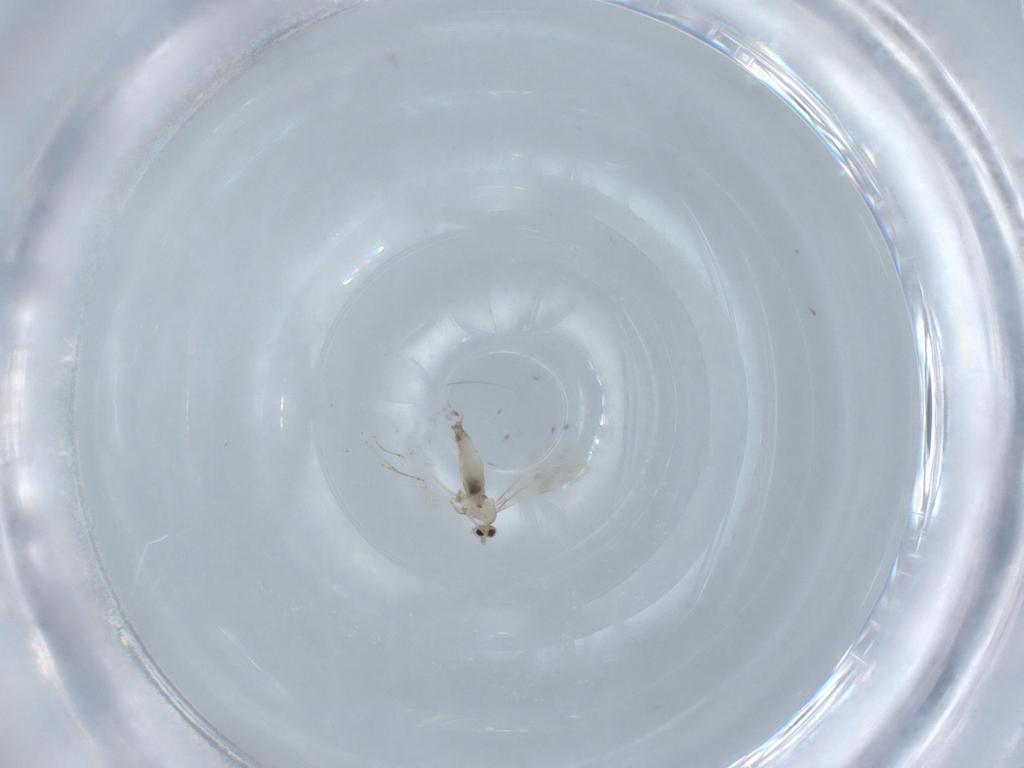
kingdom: Animalia
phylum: Arthropoda
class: Insecta
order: Diptera
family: Cecidomyiidae
